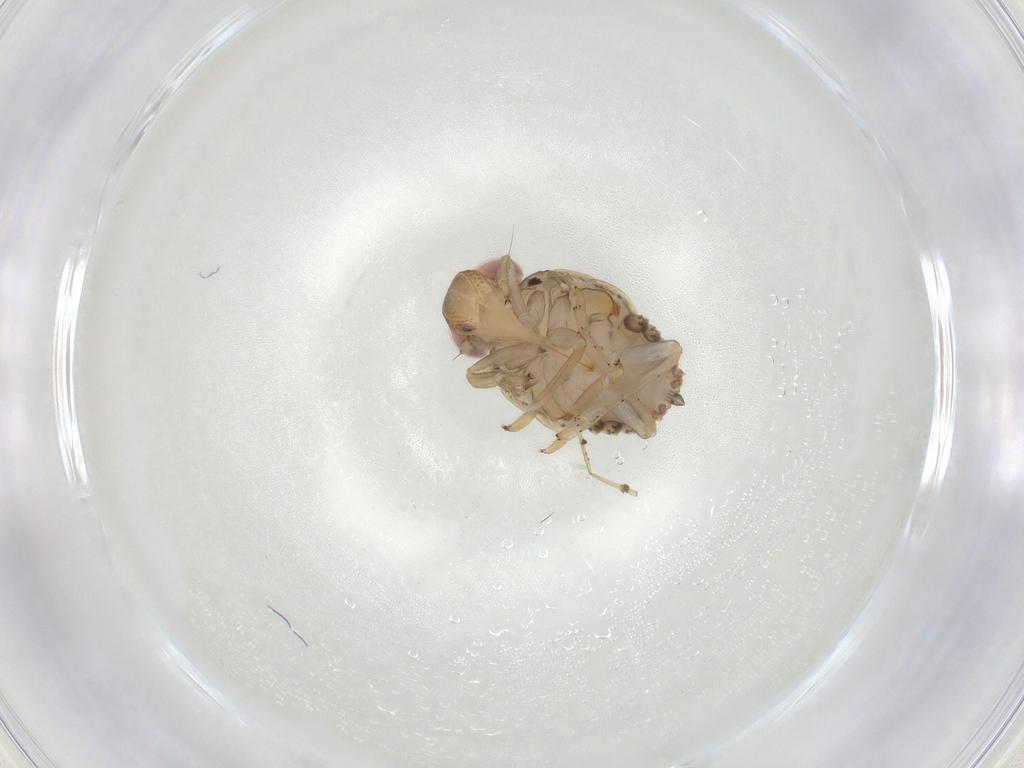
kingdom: Animalia
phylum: Arthropoda
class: Insecta
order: Hemiptera
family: Issidae
